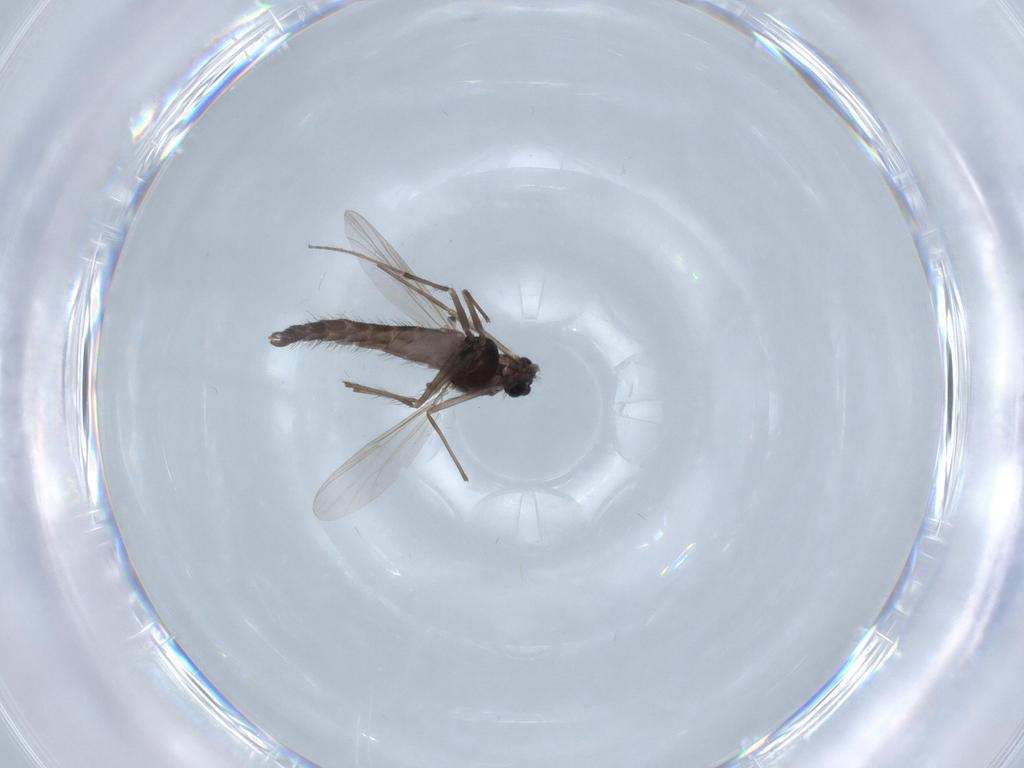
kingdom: Animalia
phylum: Arthropoda
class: Insecta
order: Diptera
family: Chironomidae
